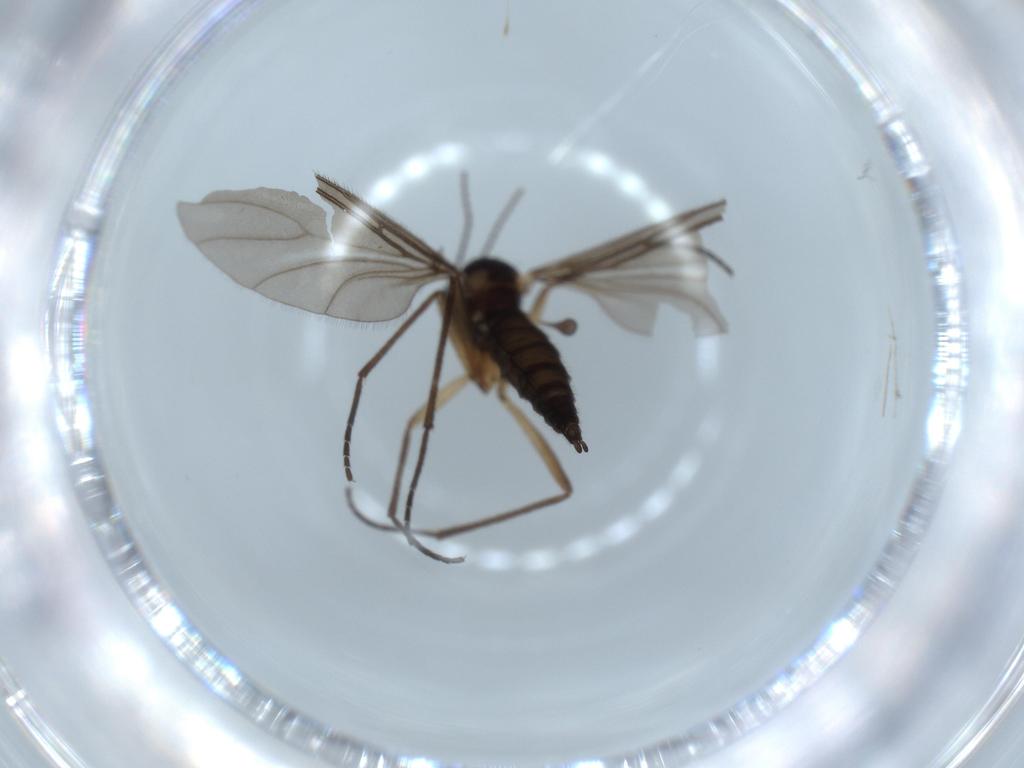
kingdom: Animalia
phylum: Arthropoda
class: Insecta
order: Diptera
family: Sciaridae
